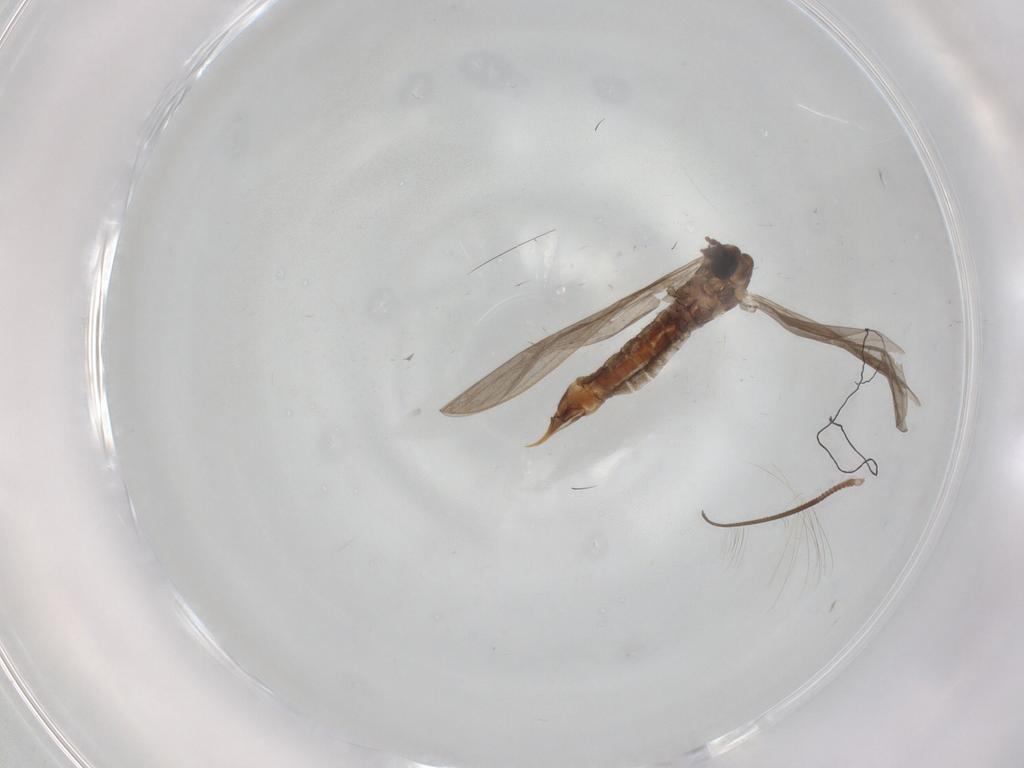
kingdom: Animalia
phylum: Arthropoda
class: Insecta
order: Diptera
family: Chironomidae
